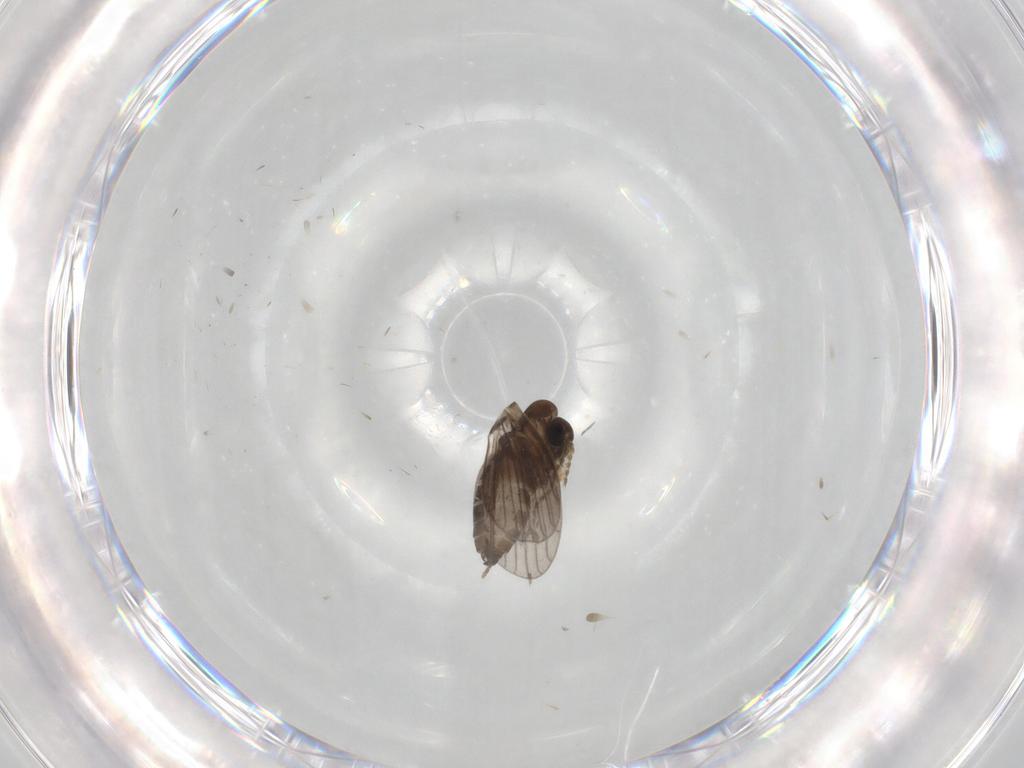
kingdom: Animalia
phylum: Arthropoda
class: Insecta
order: Diptera
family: Psychodidae
